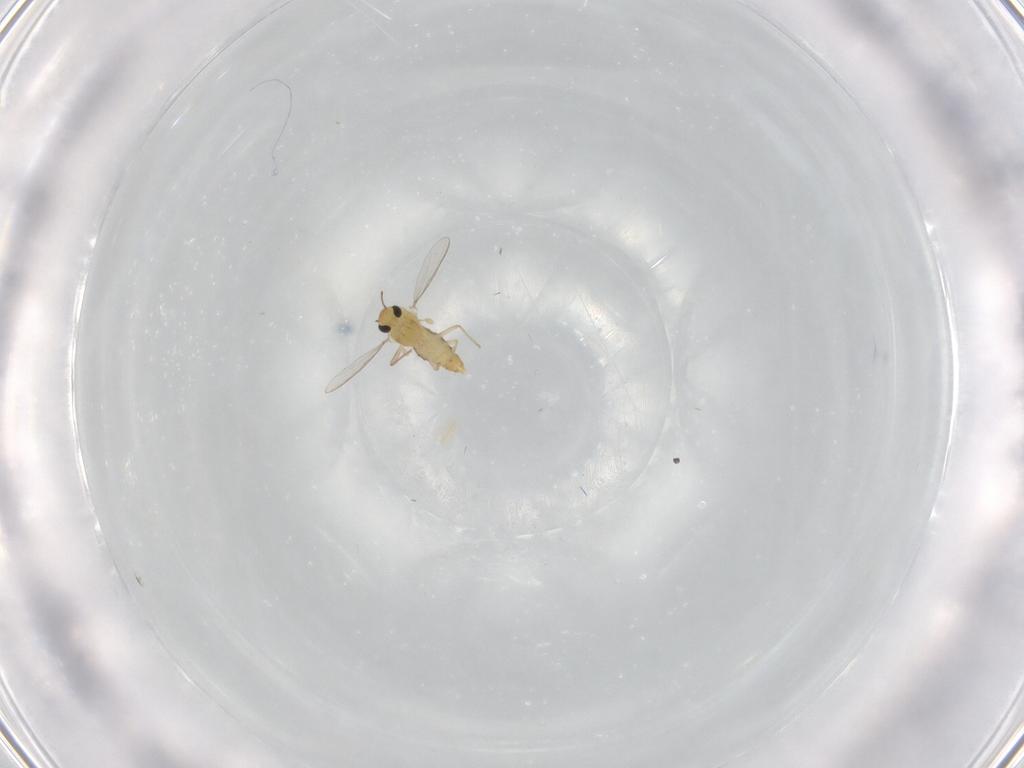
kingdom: Animalia
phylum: Arthropoda
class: Insecta
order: Diptera
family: Chironomidae
